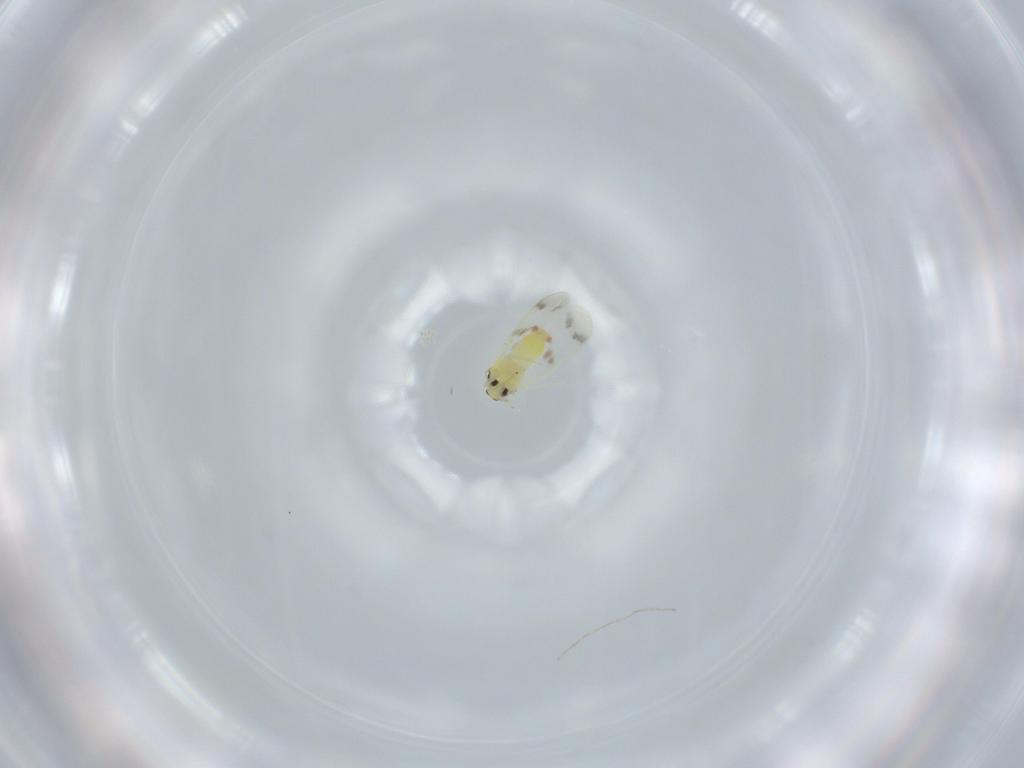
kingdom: Animalia
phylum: Arthropoda
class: Insecta
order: Hemiptera
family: Aleyrodidae
